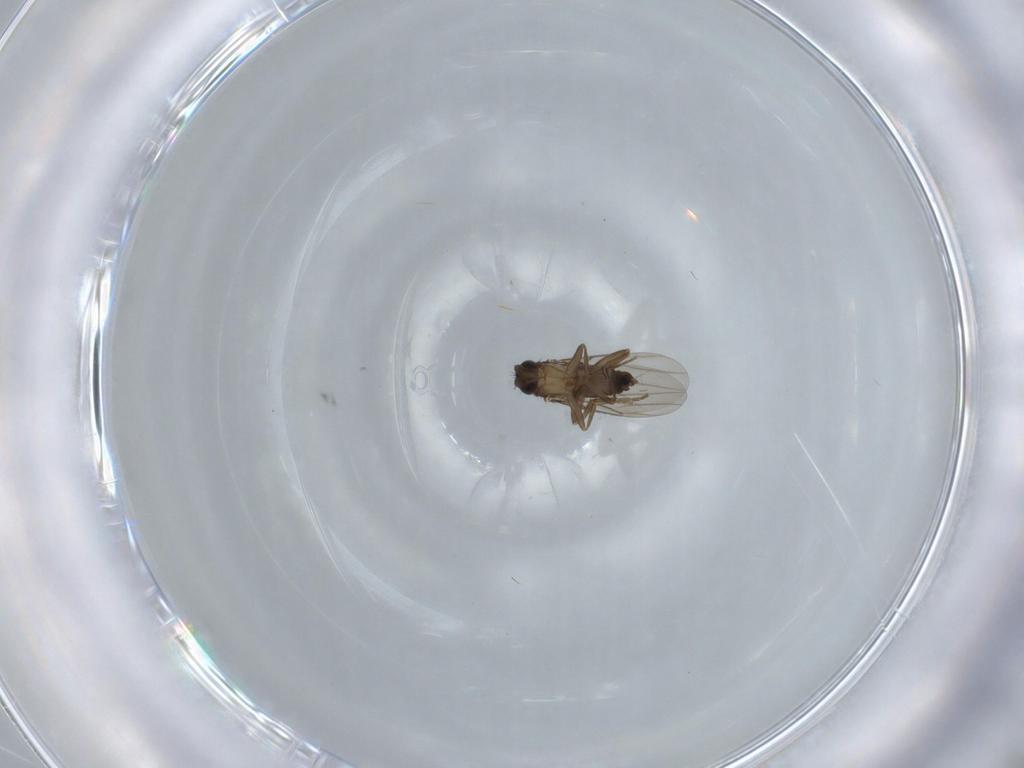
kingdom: Animalia
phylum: Arthropoda
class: Insecta
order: Diptera
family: Phoridae
